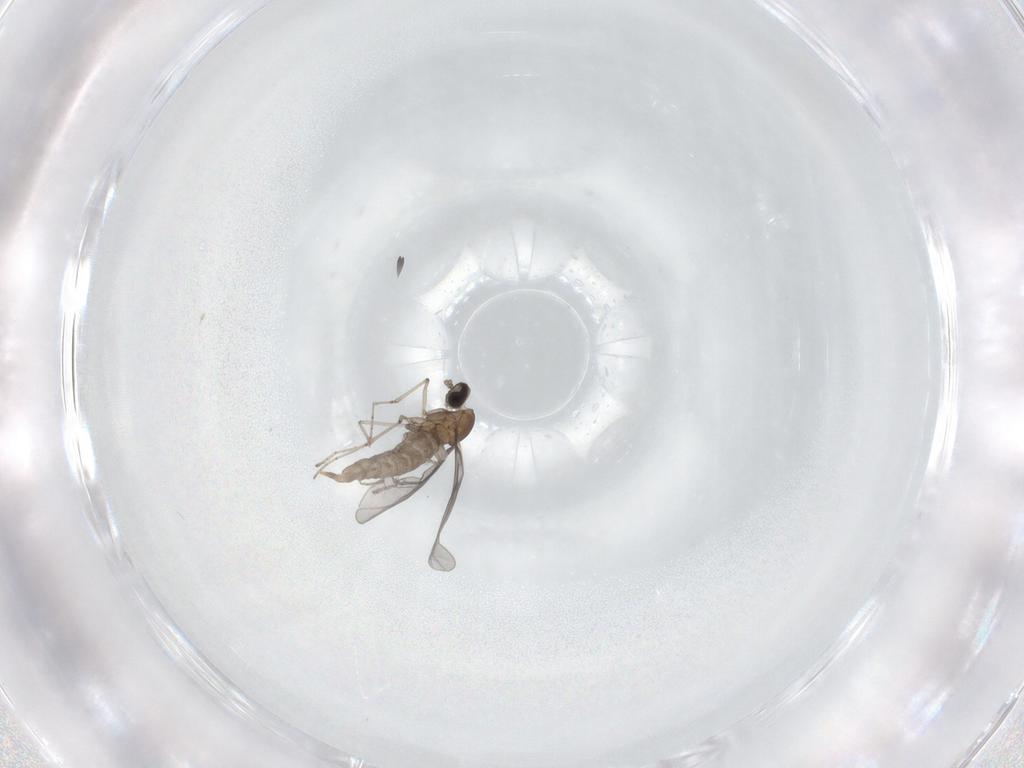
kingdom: Animalia
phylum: Arthropoda
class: Insecta
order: Diptera
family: Cecidomyiidae
